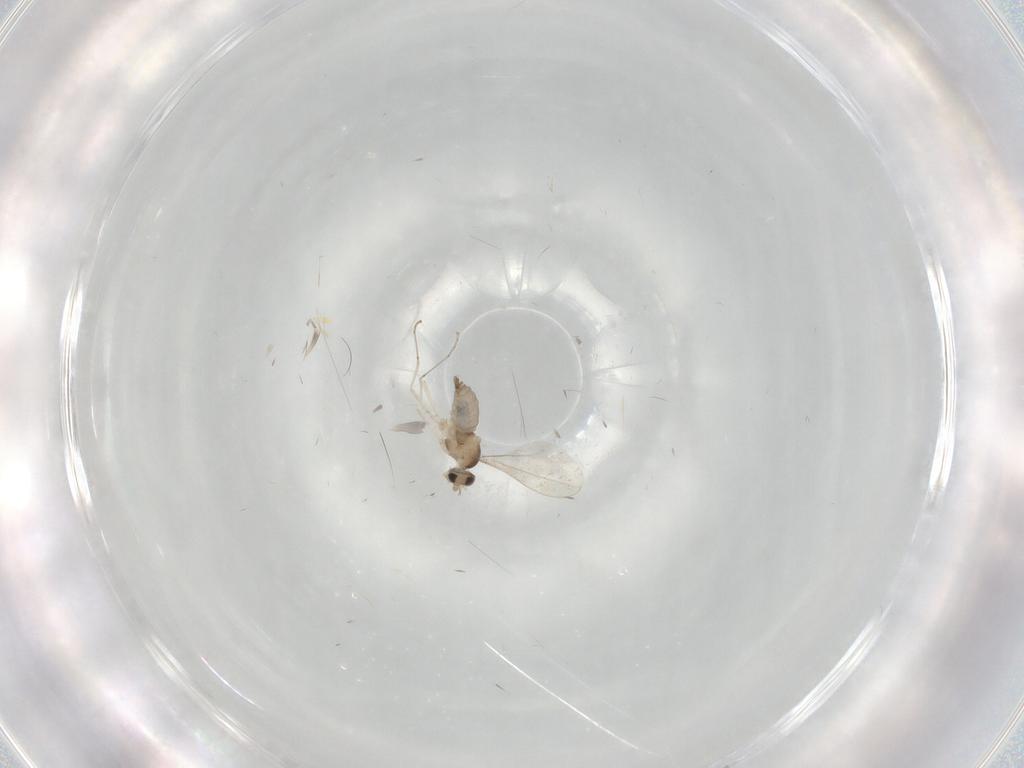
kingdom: Animalia
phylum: Arthropoda
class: Insecta
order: Diptera
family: Cecidomyiidae
